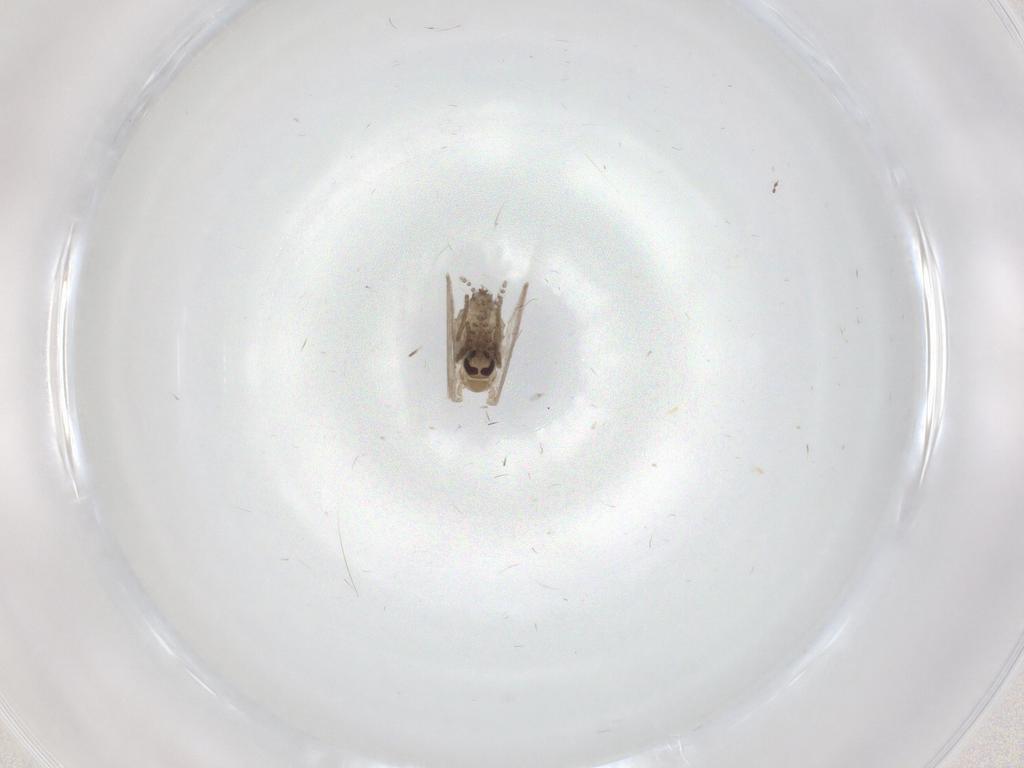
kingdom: Animalia
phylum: Arthropoda
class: Insecta
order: Diptera
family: Psychodidae
